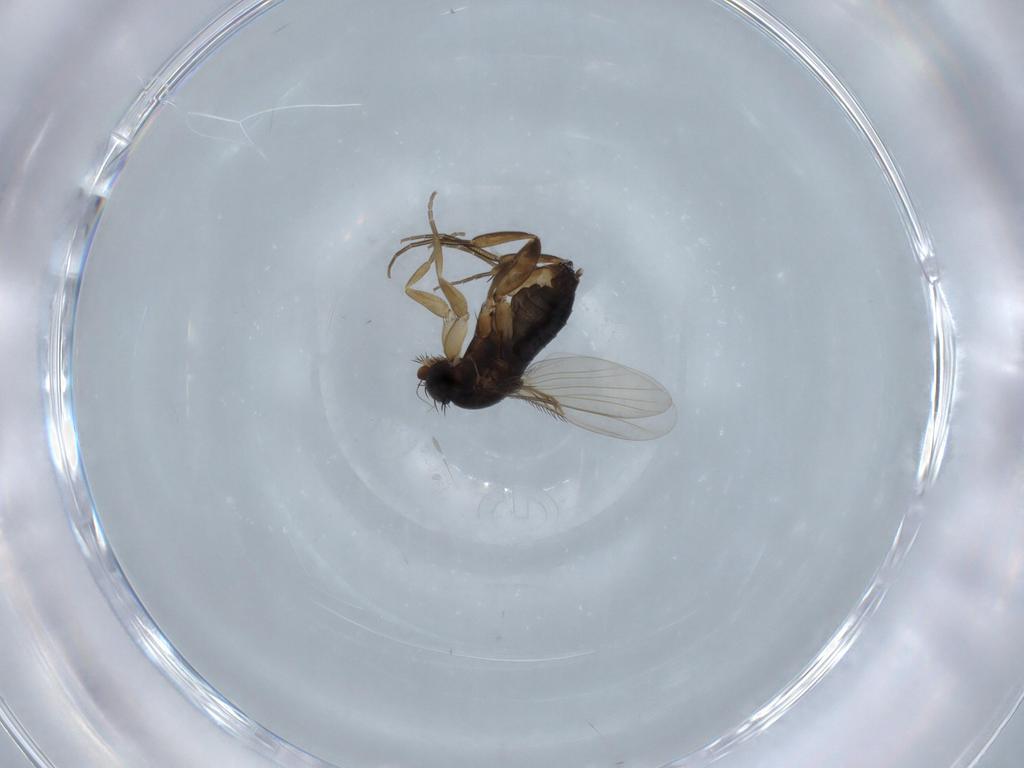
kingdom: Animalia
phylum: Arthropoda
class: Insecta
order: Diptera
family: Phoridae
